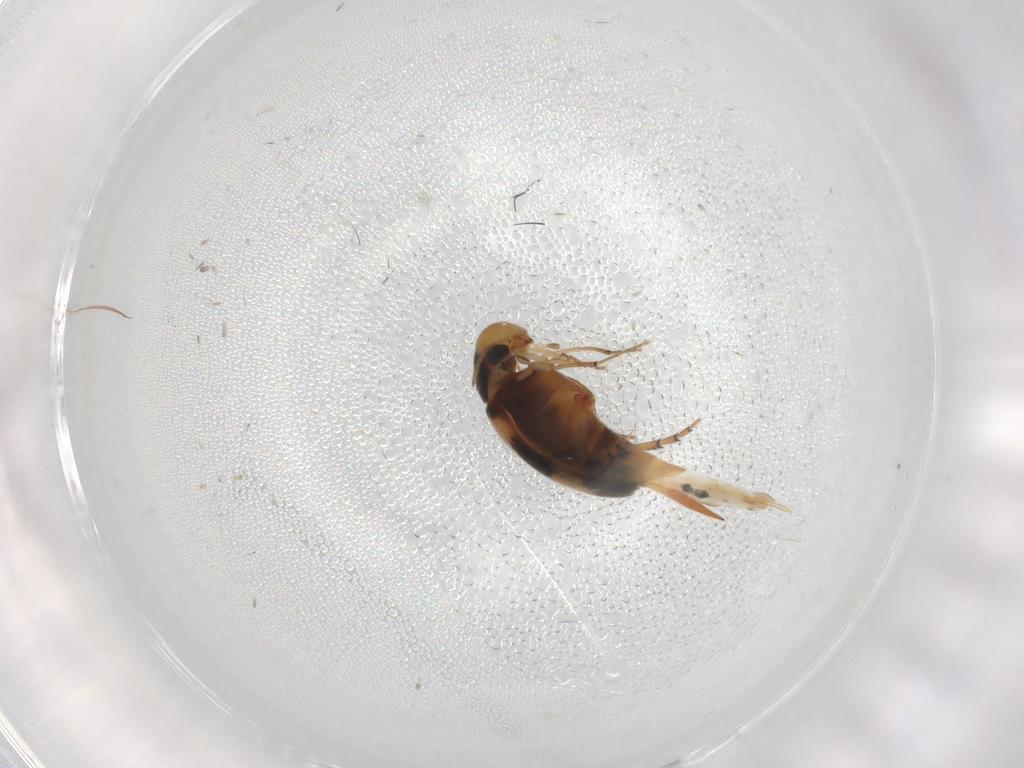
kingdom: Animalia
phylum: Arthropoda
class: Insecta
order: Coleoptera
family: Mordellidae
